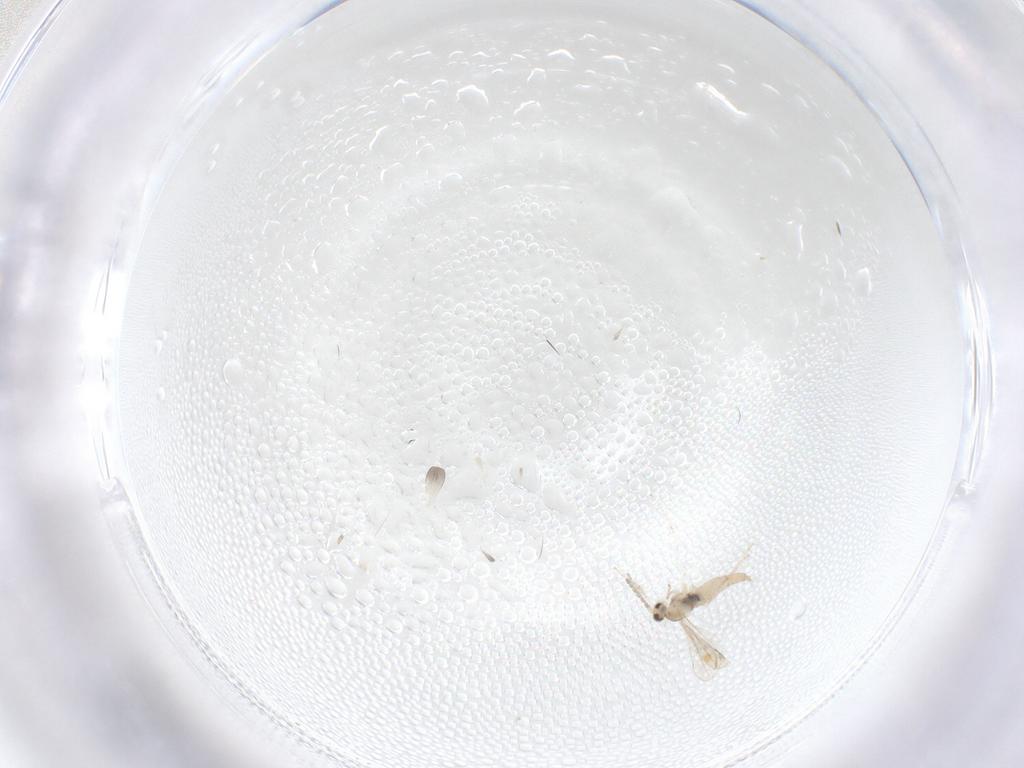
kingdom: Animalia
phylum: Arthropoda
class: Insecta
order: Diptera
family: Phoridae
